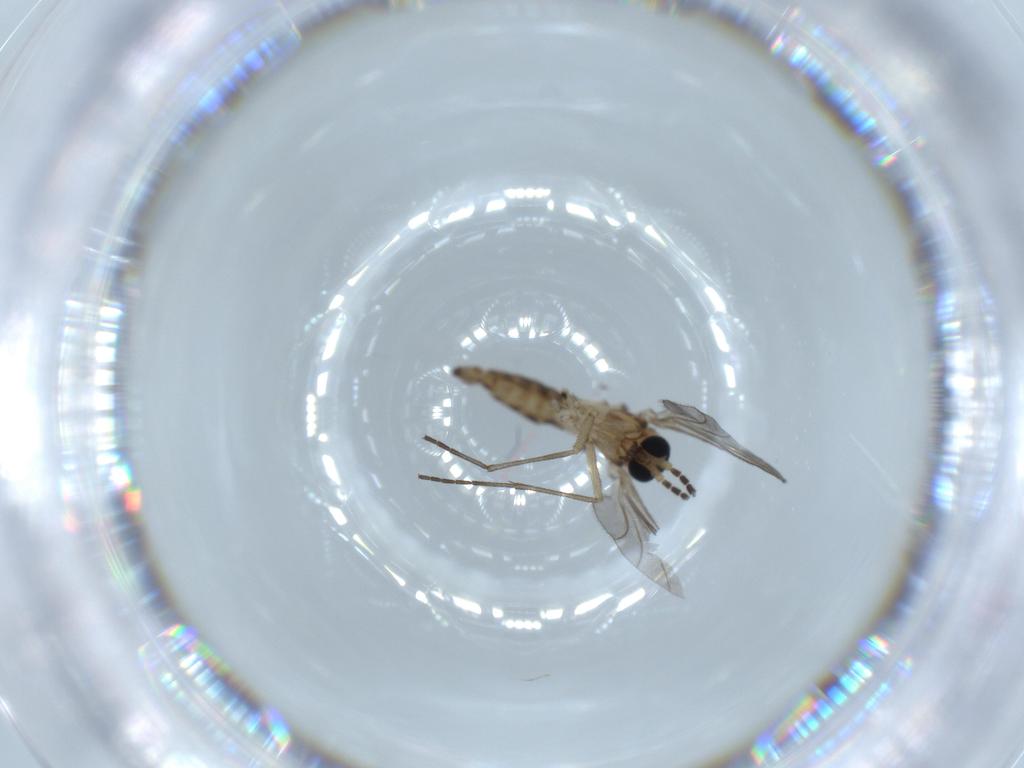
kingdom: Animalia
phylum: Arthropoda
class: Insecta
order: Diptera
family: Sciaridae
